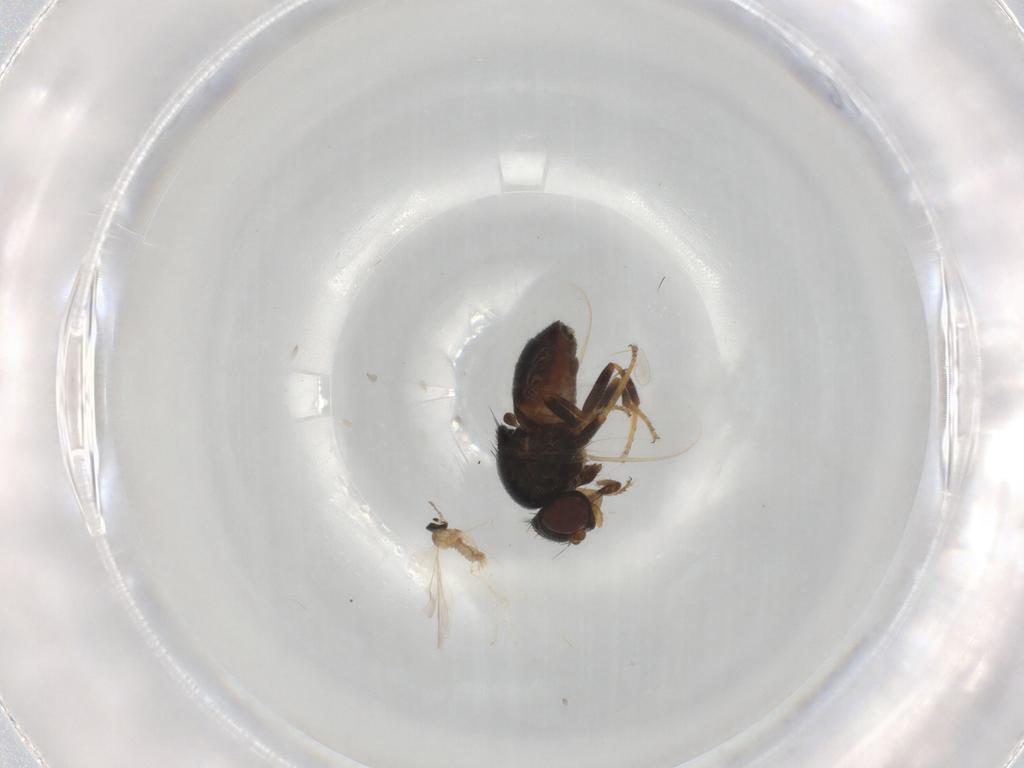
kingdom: Animalia
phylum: Arthropoda
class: Insecta
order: Diptera
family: Chloropidae
